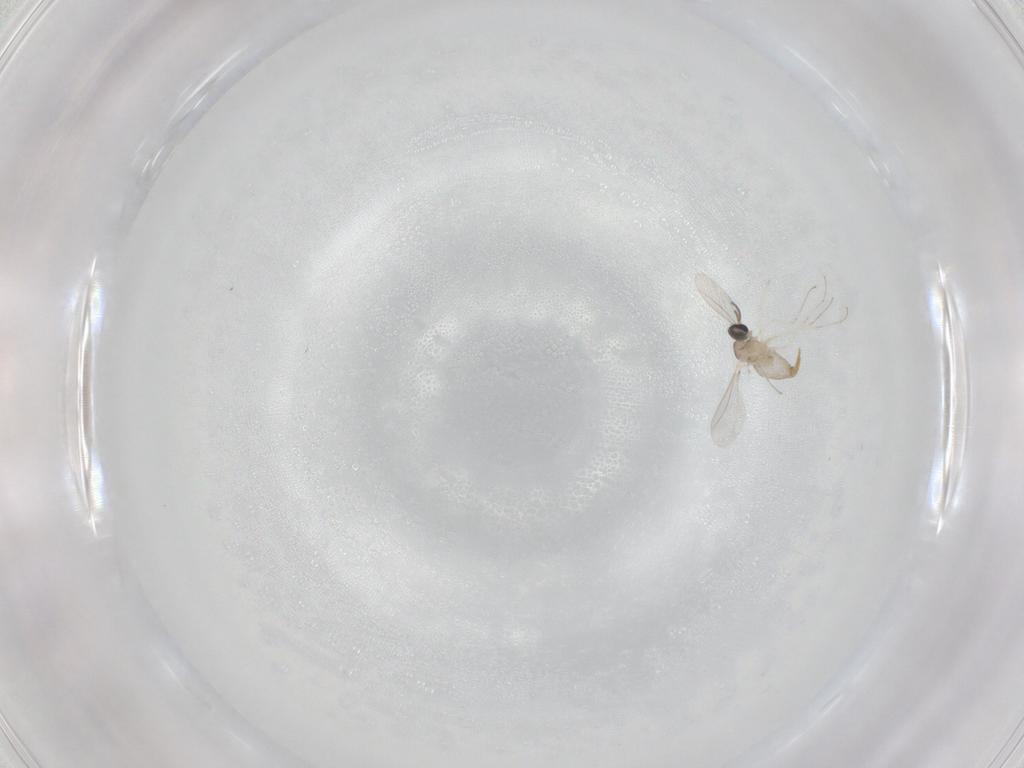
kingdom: Animalia
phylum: Arthropoda
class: Insecta
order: Diptera
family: Cecidomyiidae
